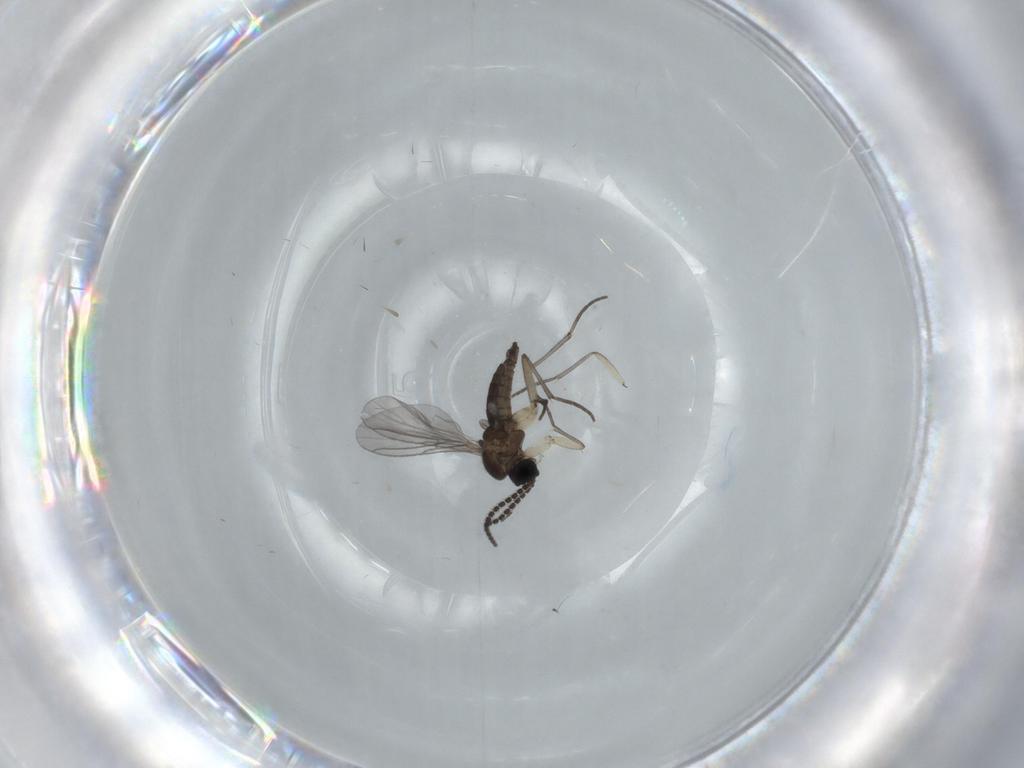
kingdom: Animalia
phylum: Arthropoda
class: Insecta
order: Diptera
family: Sciaridae
